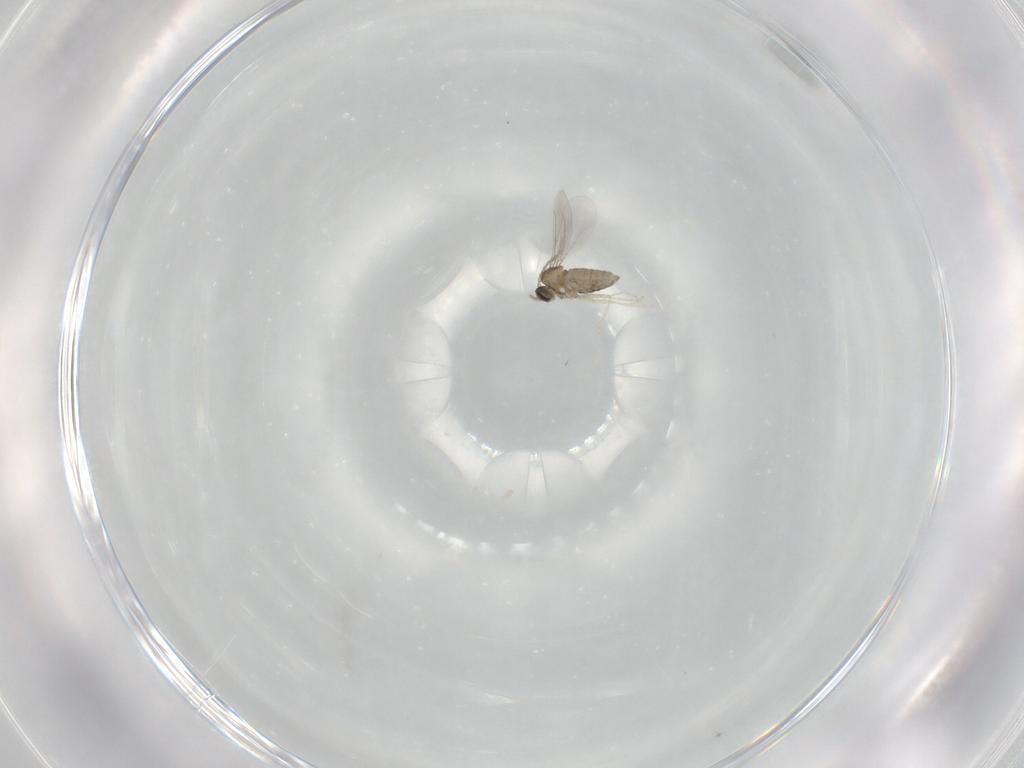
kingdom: Animalia
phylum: Arthropoda
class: Insecta
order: Diptera
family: Cecidomyiidae
